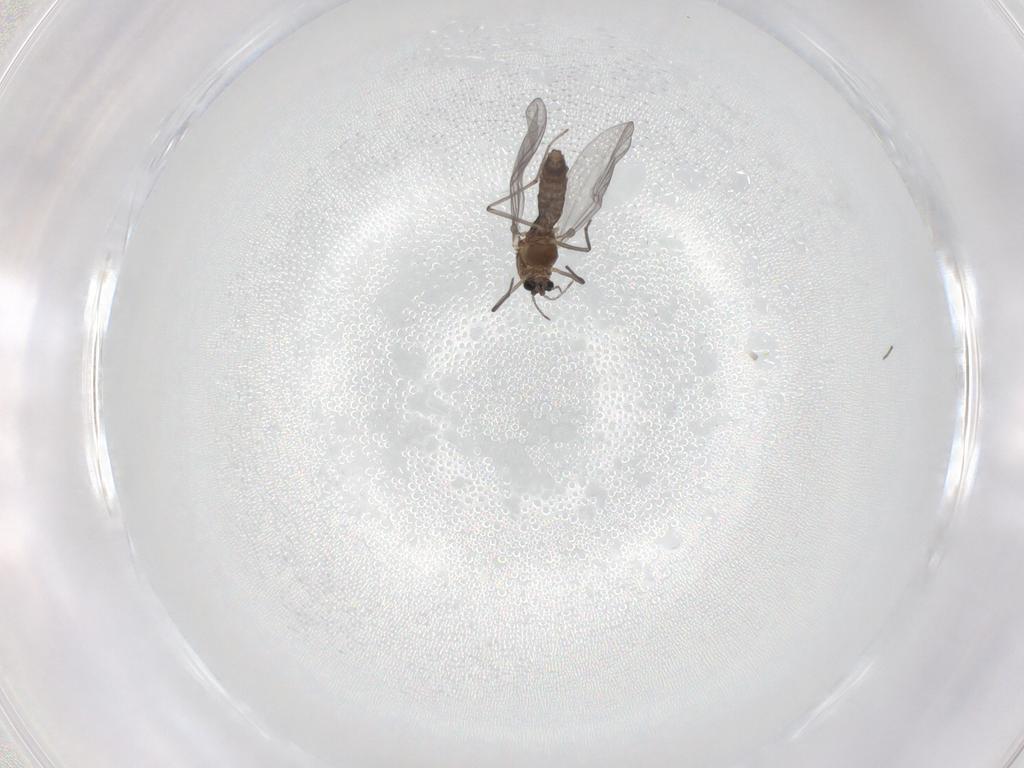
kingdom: Animalia
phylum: Arthropoda
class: Insecta
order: Diptera
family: Chironomidae
